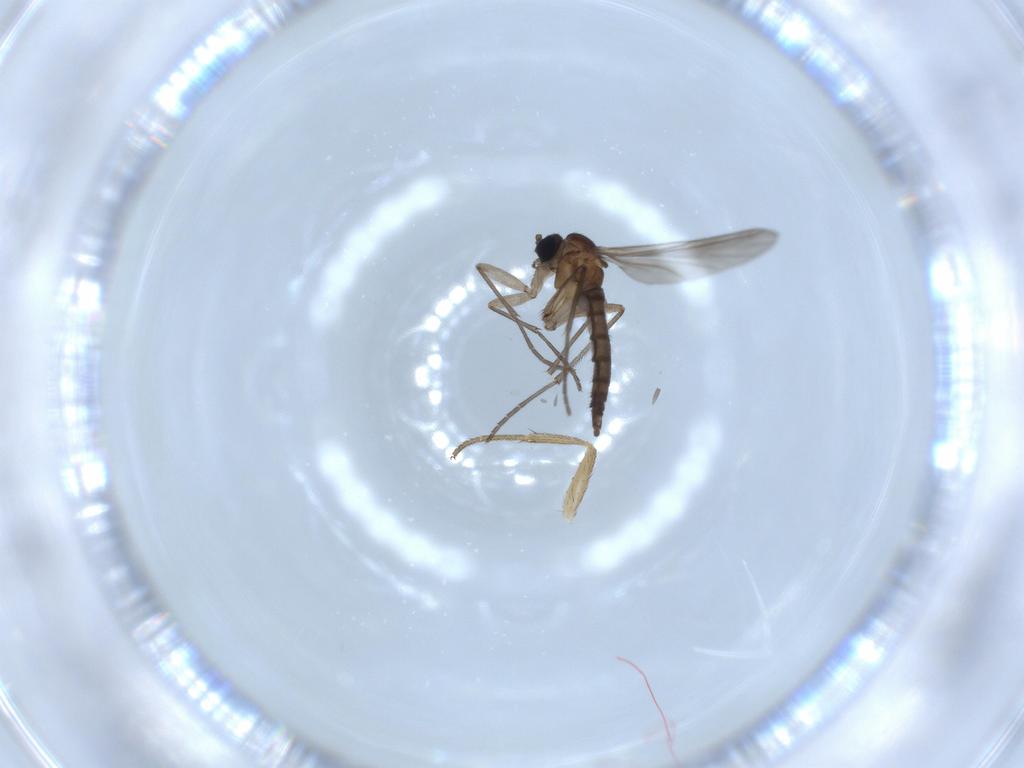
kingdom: Animalia
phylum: Arthropoda
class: Insecta
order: Diptera
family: Sciaridae
